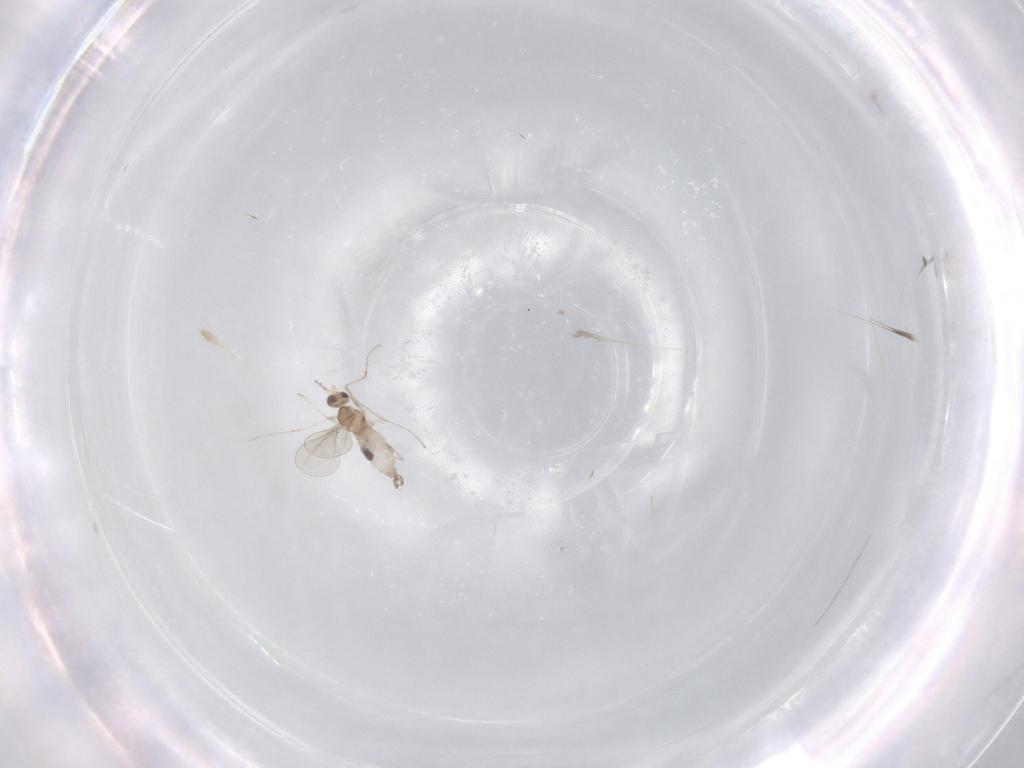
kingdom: Animalia
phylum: Arthropoda
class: Insecta
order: Diptera
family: Cecidomyiidae
